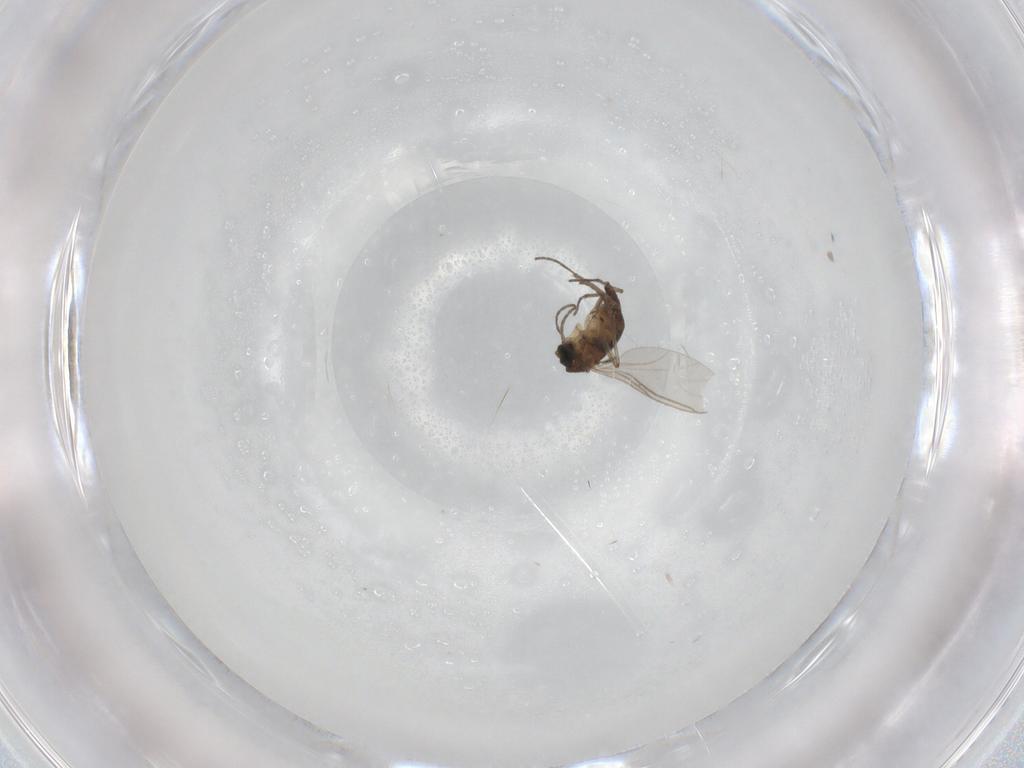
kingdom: Animalia
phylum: Arthropoda
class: Insecta
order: Diptera
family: Sciaridae
